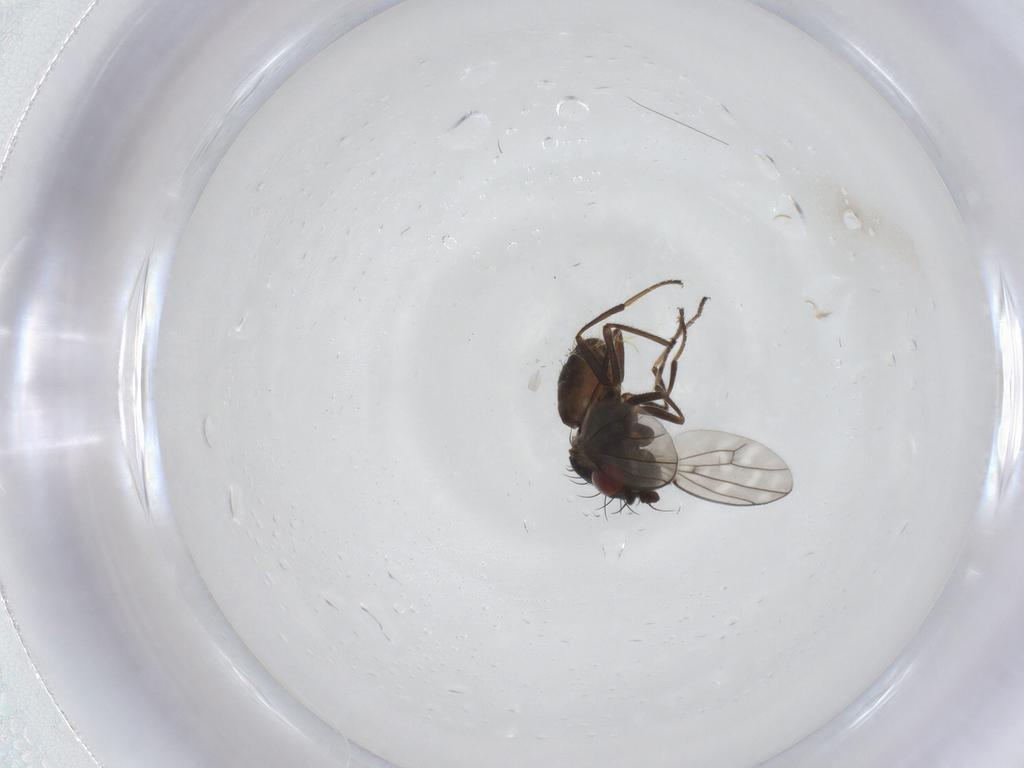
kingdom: Animalia
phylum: Arthropoda
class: Insecta
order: Diptera
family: Ephydridae
